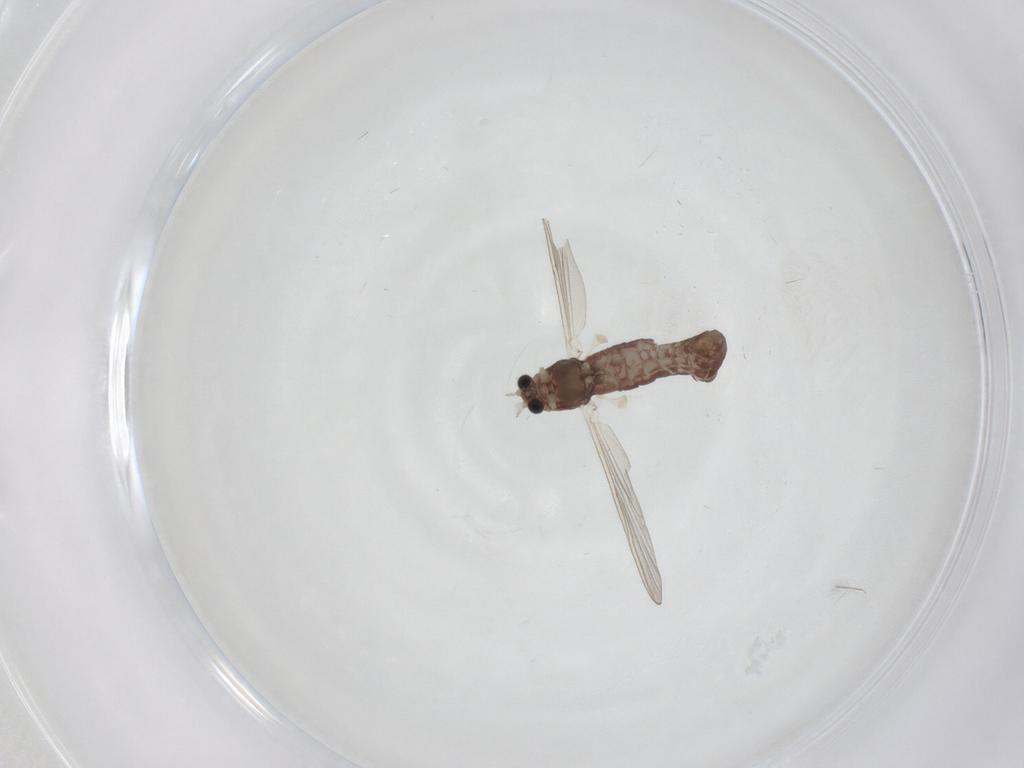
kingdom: Animalia
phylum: Arthropoda
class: Insecta
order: Diptera
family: Chironomidae
